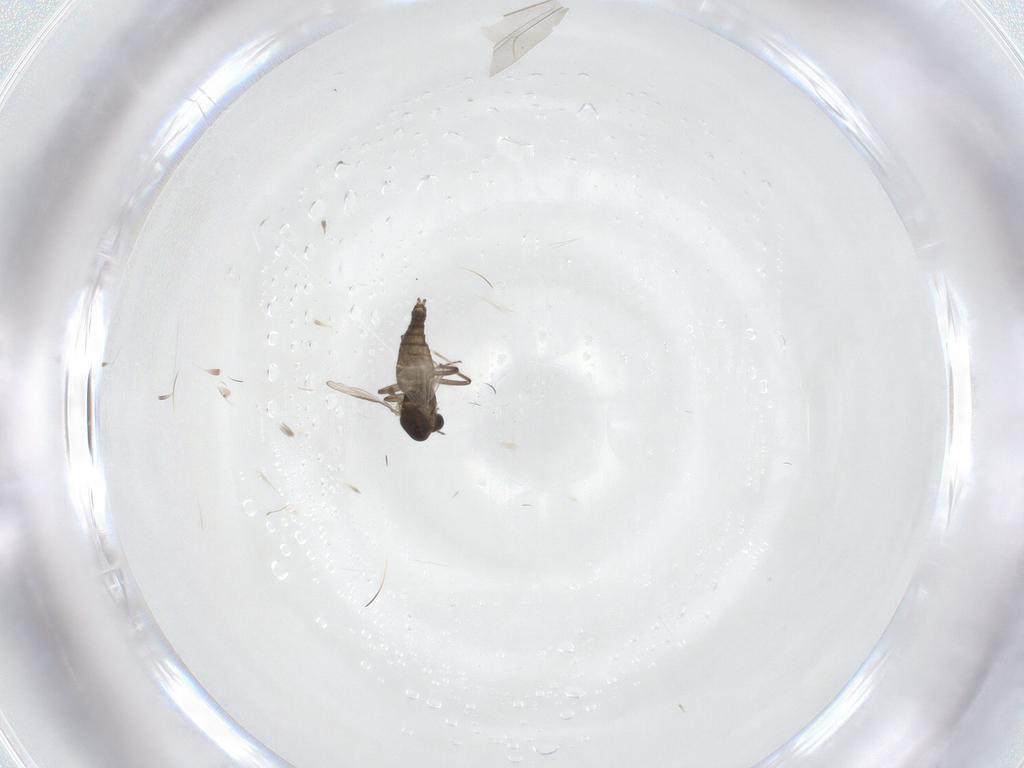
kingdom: Animalia
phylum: Arthropoda
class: Insecta
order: Diptera
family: Chironomidae
